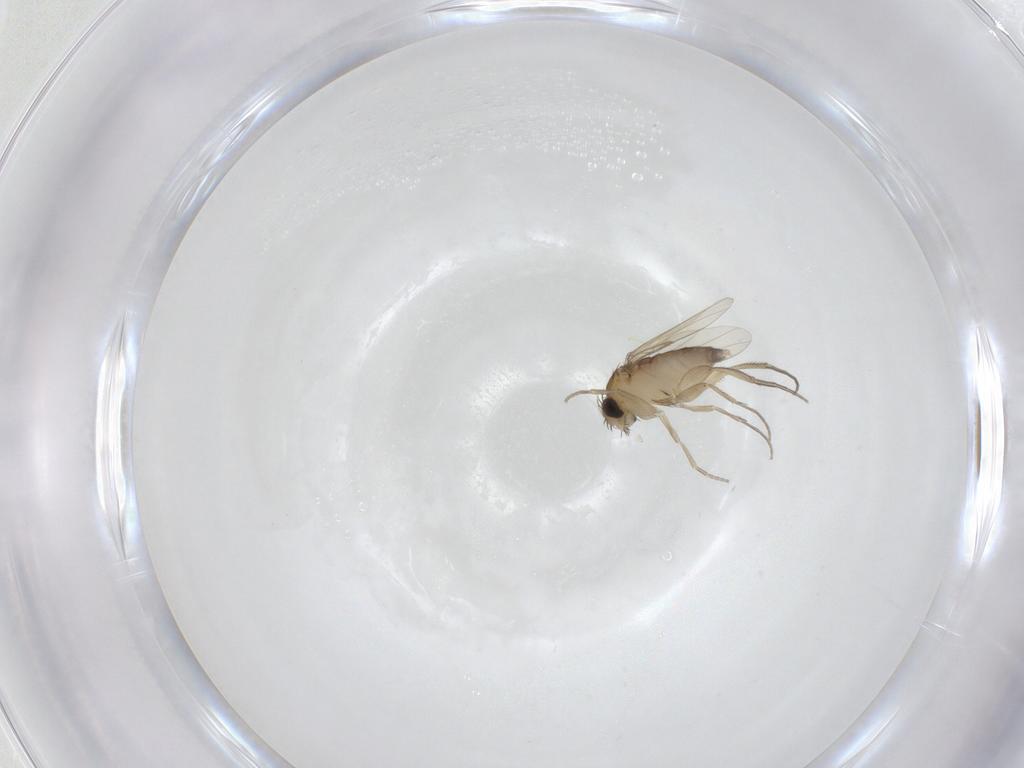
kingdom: Animalia
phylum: Arthropoda
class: Insecta
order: Diptera
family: Phoridae
